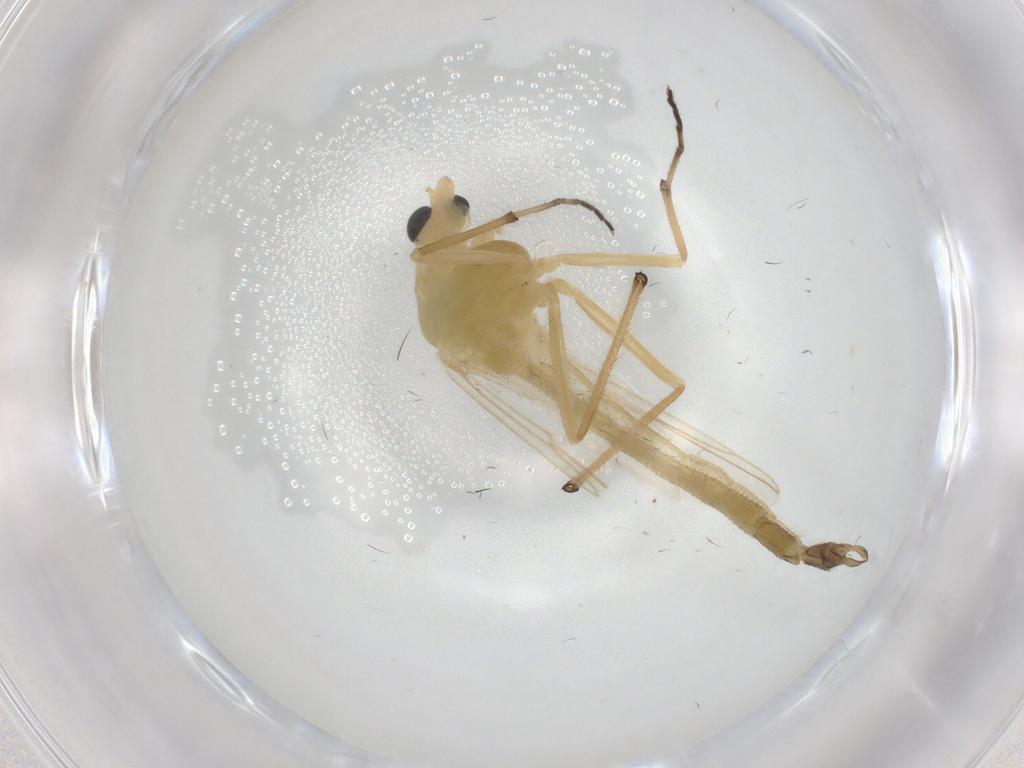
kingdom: Animalia
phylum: Arthropoda
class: Insecta
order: Diptera
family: Chironomidae
